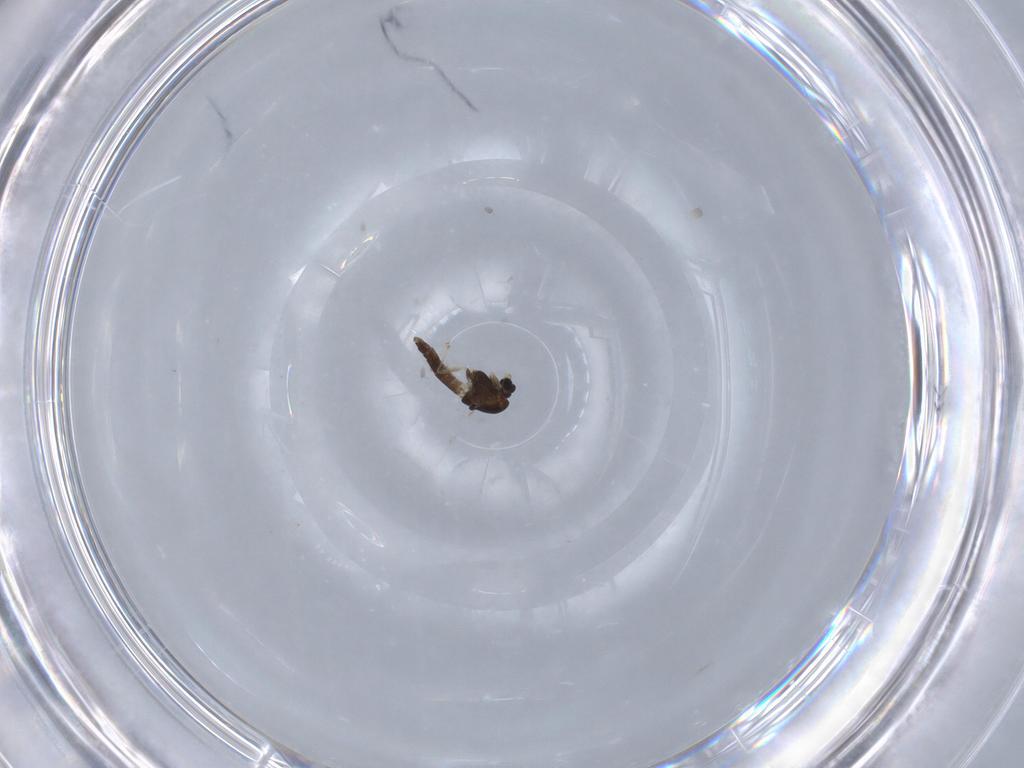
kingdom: Animalia
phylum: Arthropoda
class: Insecta
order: Diptera
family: Chironomidae
